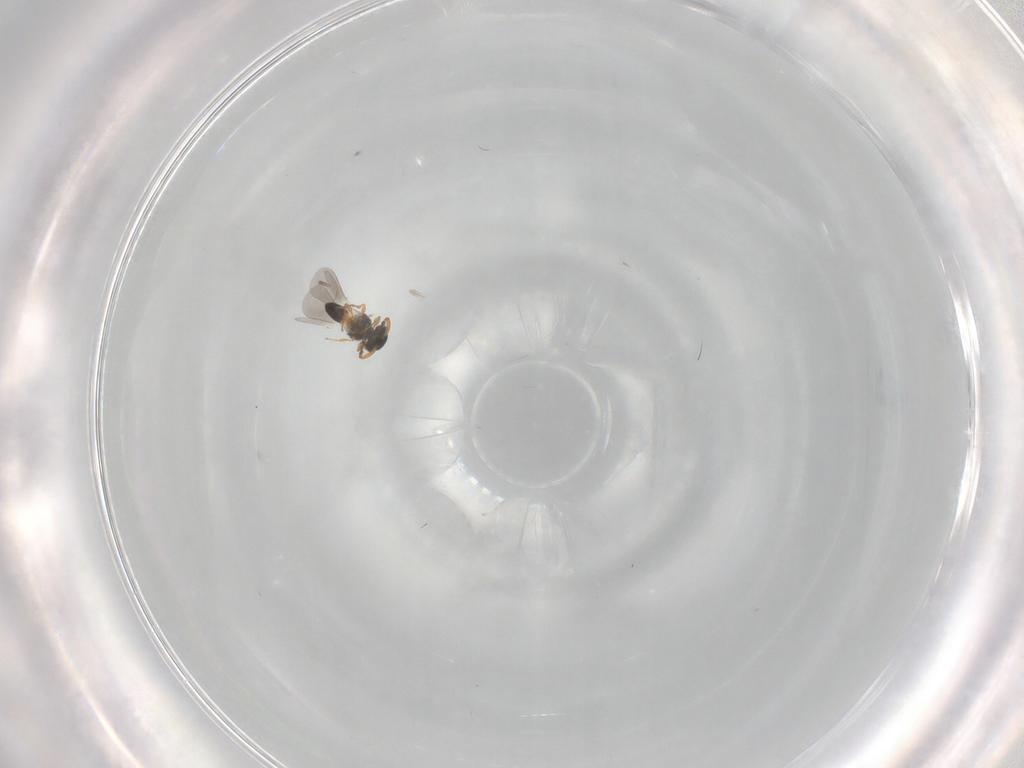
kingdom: Animalia
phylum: Arthropoda
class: Insecta
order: Hymenoptera
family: Platygastridae
